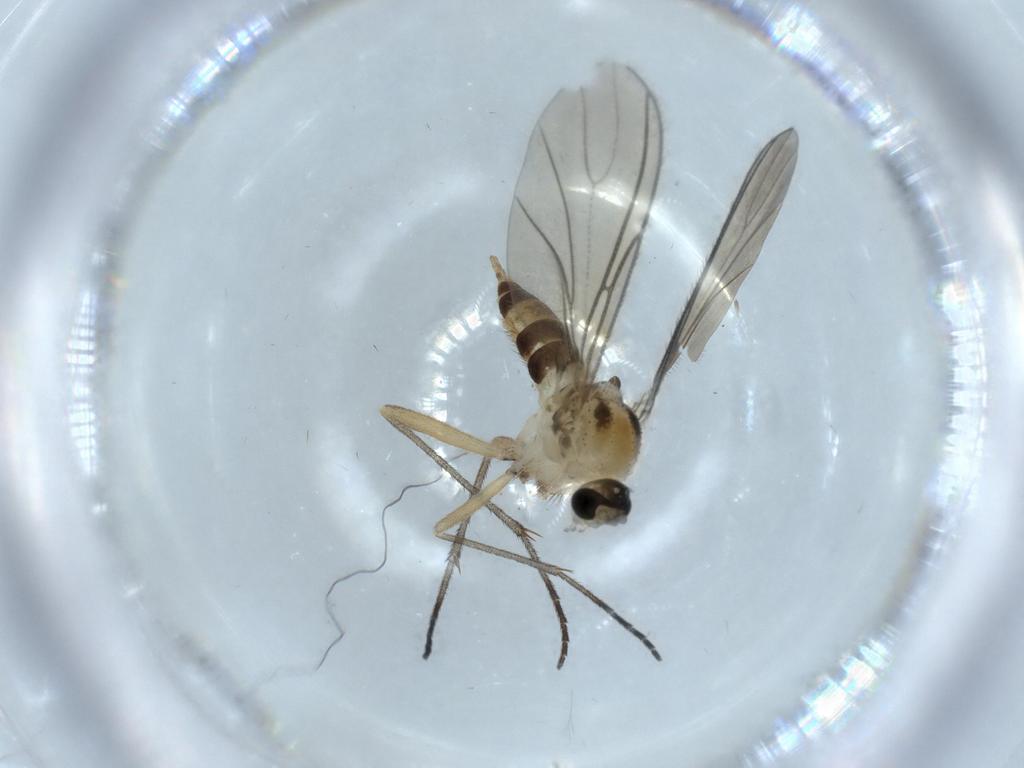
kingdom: Animalia
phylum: Arthropoda
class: Insecta
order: Diptera
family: Sciaridae
